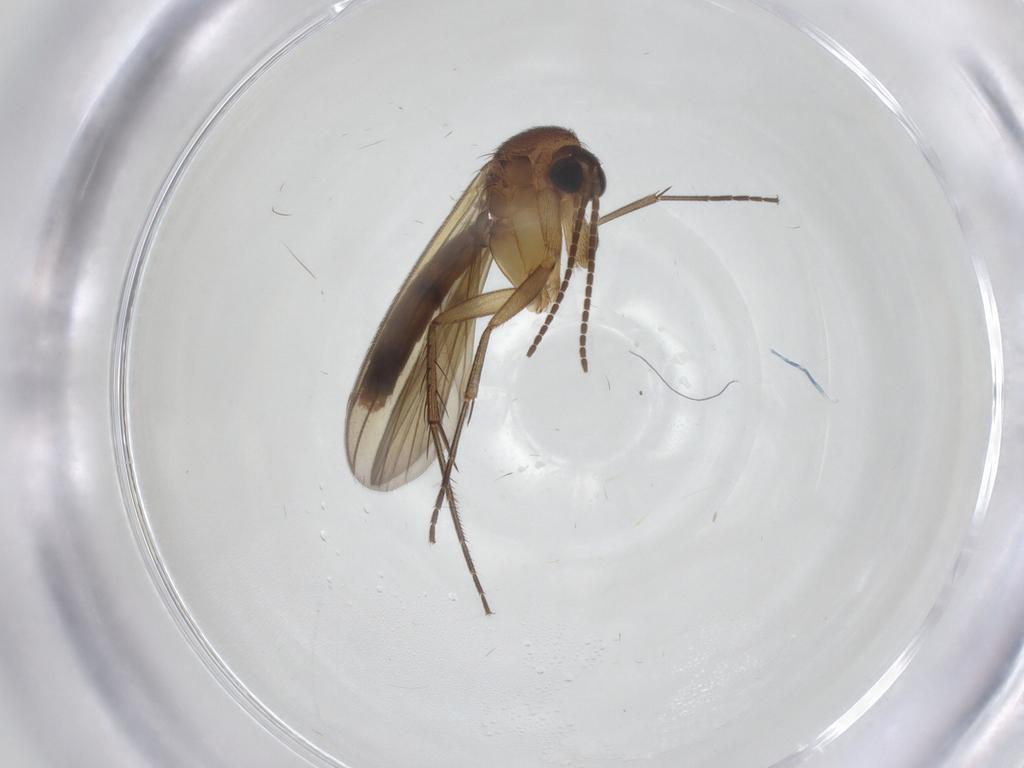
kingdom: Animalia
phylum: Arthropoda
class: Insecta
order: Diptera
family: Mycetophilidae
